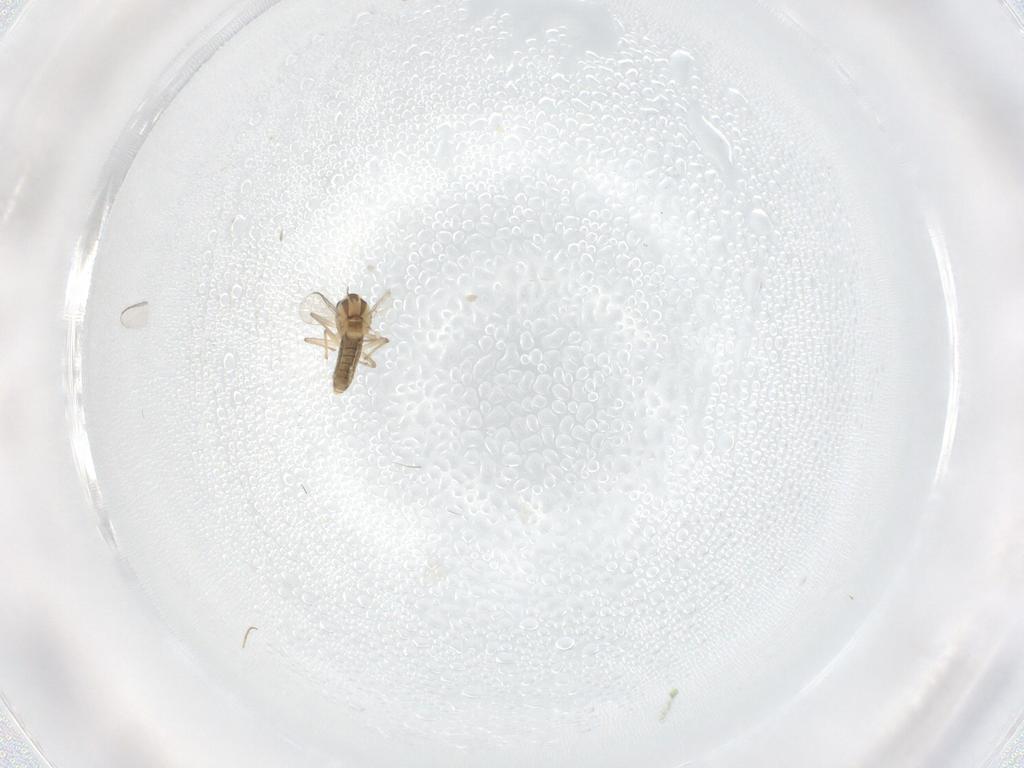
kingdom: Animalia
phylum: Arthropoda
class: Insecta
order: Diptera
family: Chironomidae
